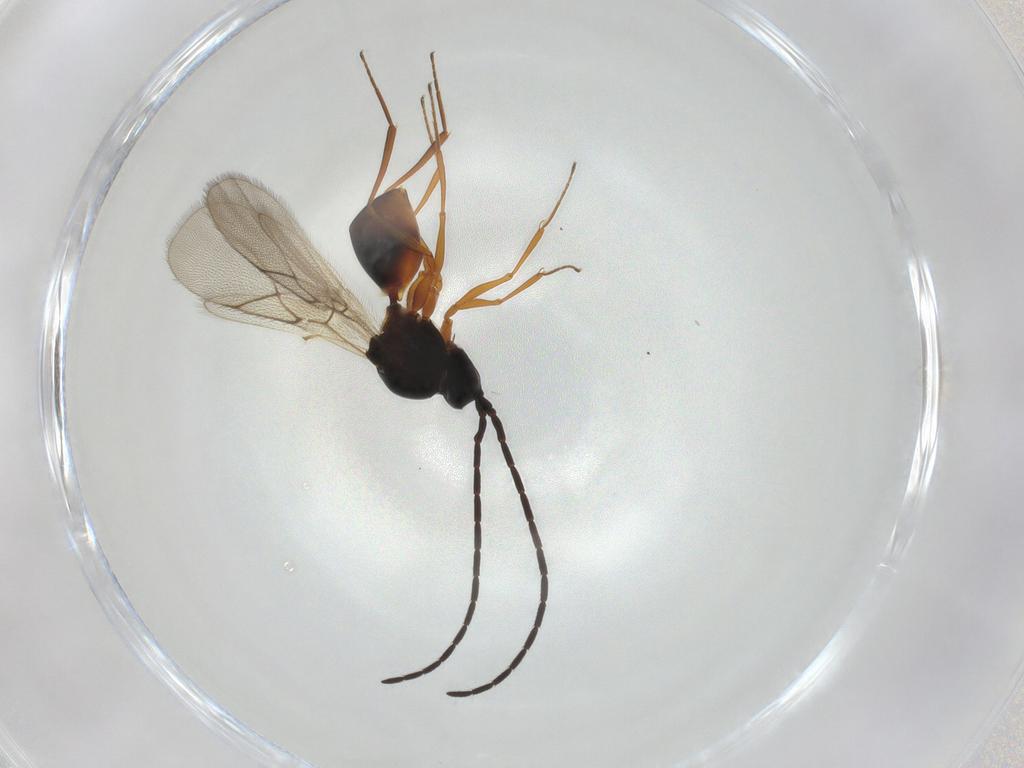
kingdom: Animalia
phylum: Arthropoda
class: Insecta
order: Hymenoptera
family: Figitidae
